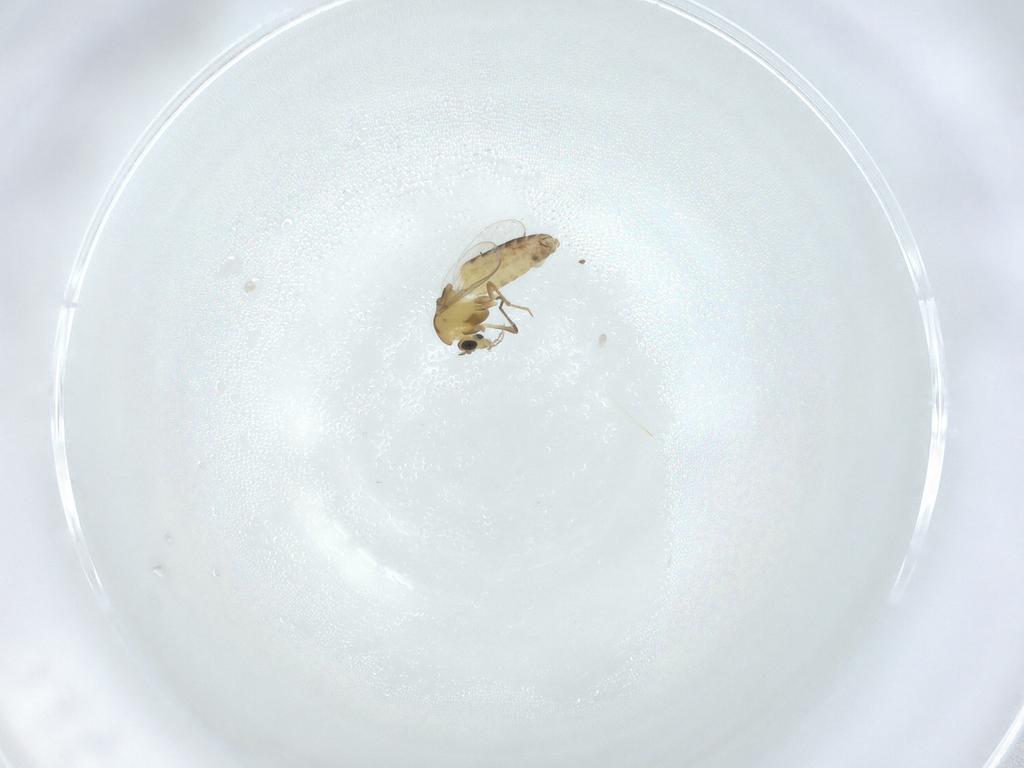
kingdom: Animalia
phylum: Arthropoda
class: Insecta
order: Diptera
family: Chironomidae
